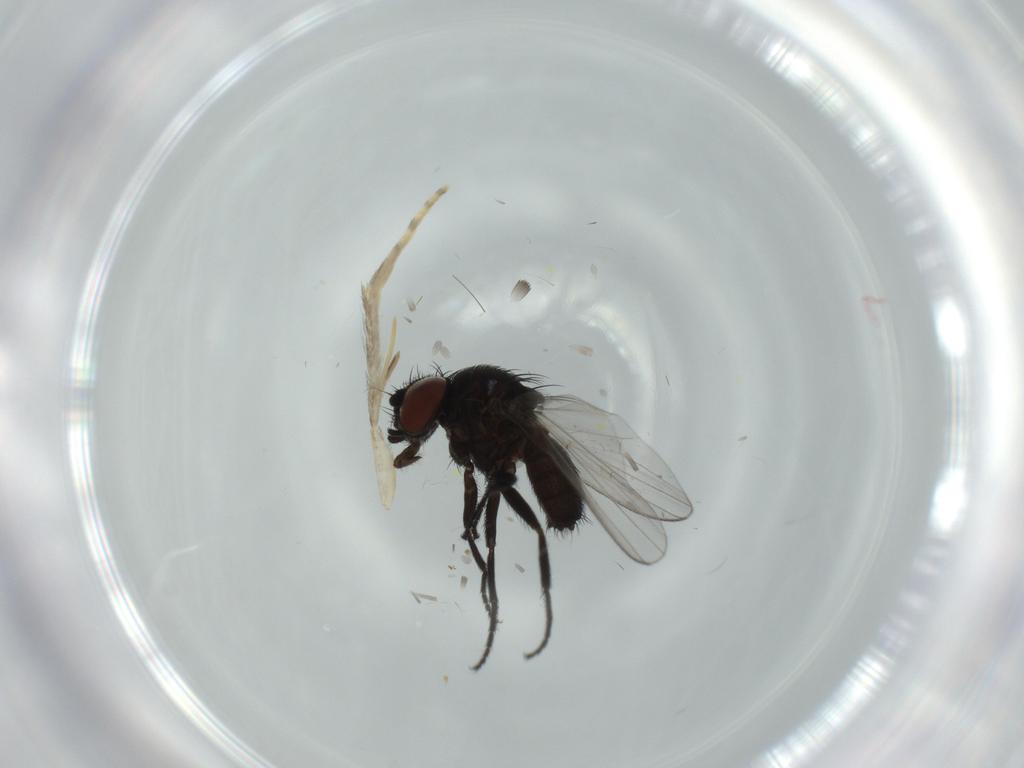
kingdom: Animalia
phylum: Arthropoda
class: Insecta
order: Diptera
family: Milichiidae
